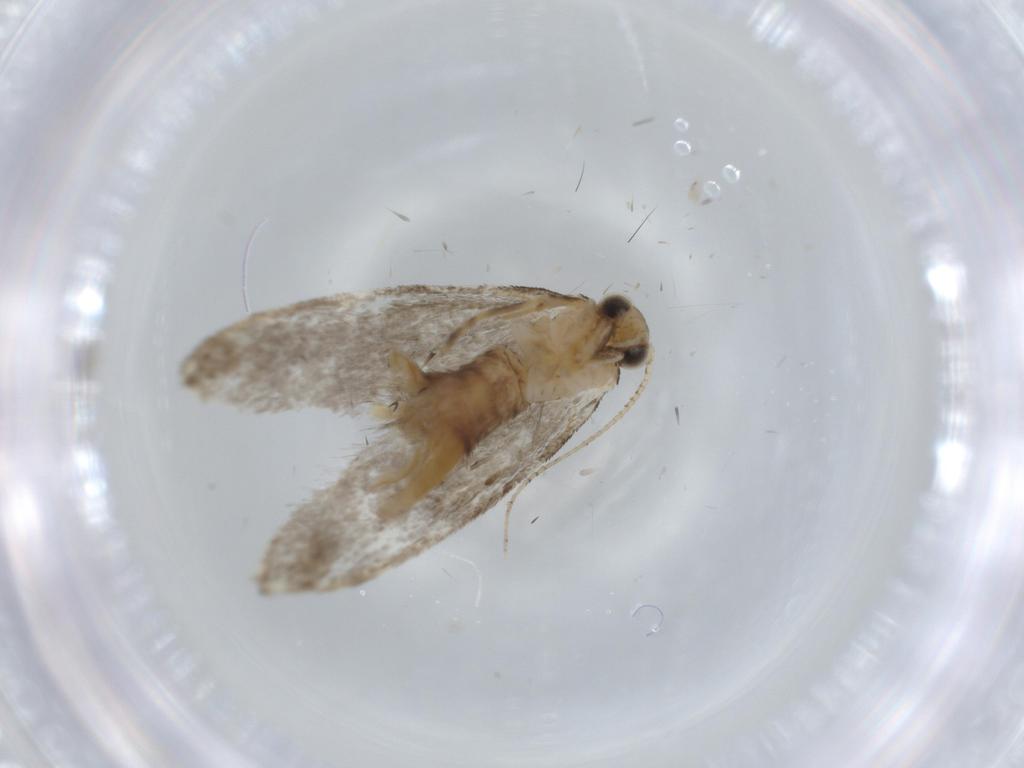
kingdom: Animalia
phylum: Arthropoda
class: Insecta
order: Lepidoptera
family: Tineidae
